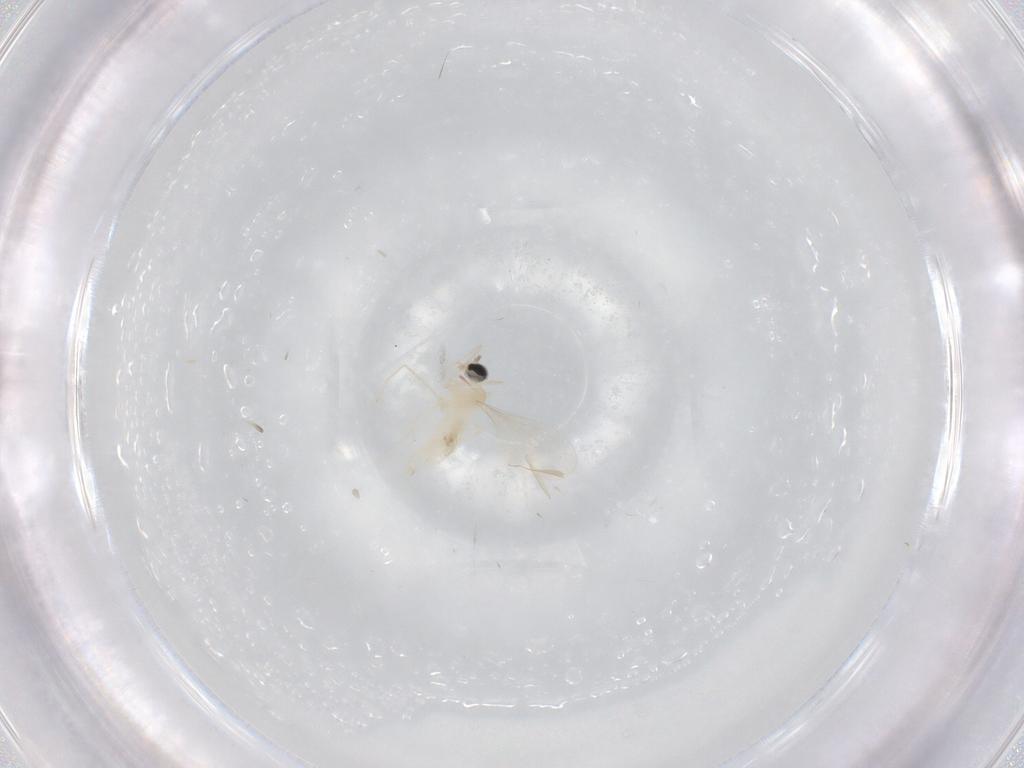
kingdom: Animalia
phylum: Arthropoda
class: Insecta
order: Diptera
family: Cecidomyiidae
